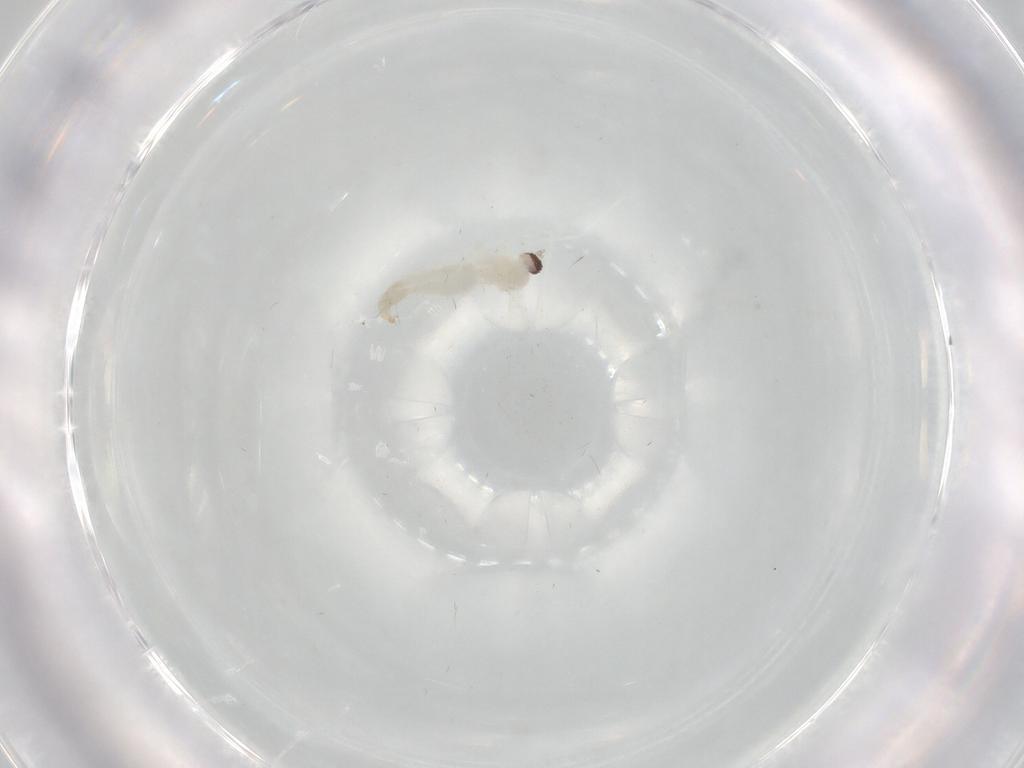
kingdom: Animalia
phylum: Arthropoda
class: Insecta
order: Diptera
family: Cecidomyiidae
